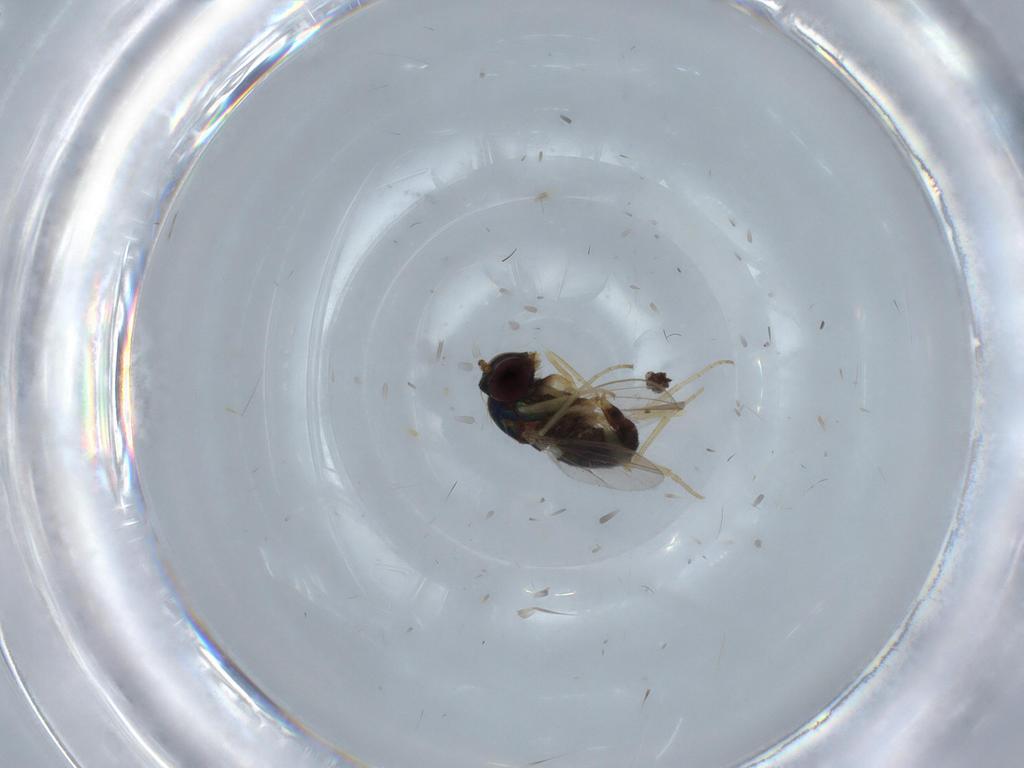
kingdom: Animalia
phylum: Arthropoda
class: Insecta
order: Diptera
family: Dolichopodidae
